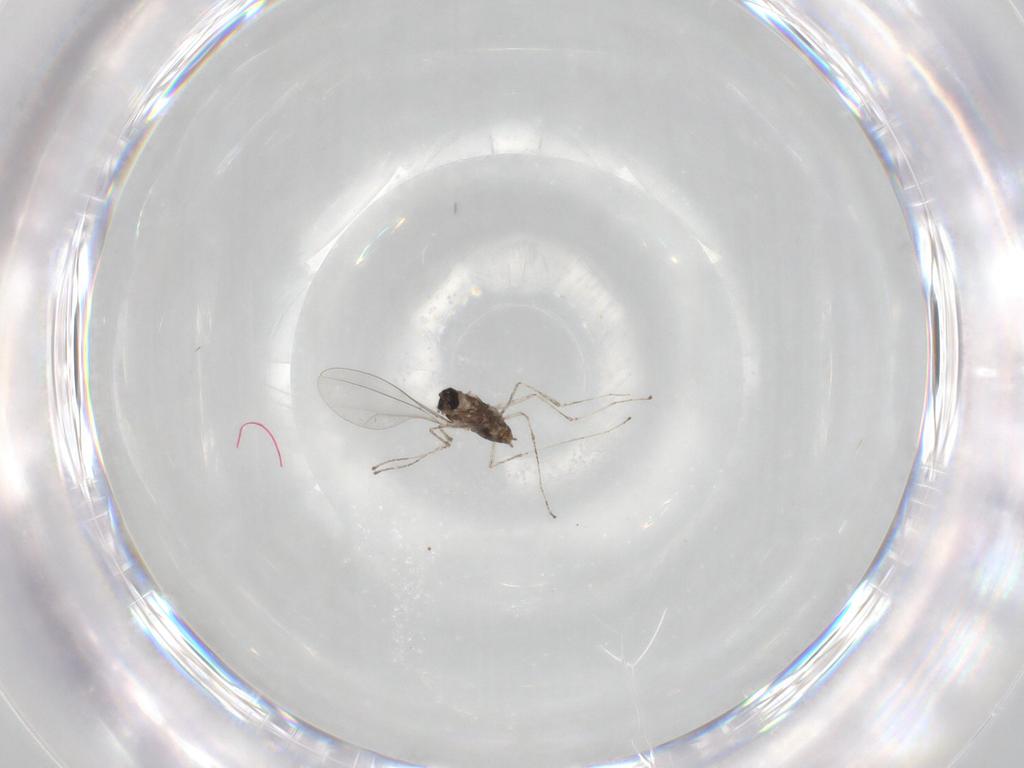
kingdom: Animalia
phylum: Arthropoda
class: Insecta
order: Diptera
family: Cecidomyiidae
